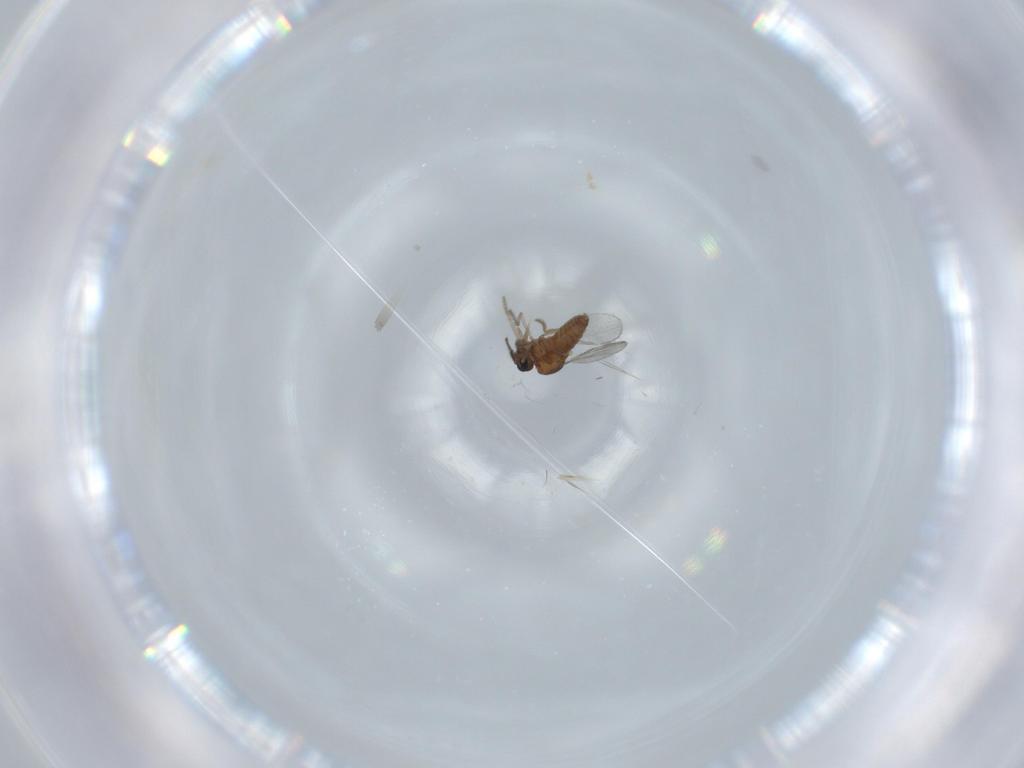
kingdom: Animalia
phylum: Arthropoda
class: Insecta
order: Diptera
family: Ceratopogonidae
